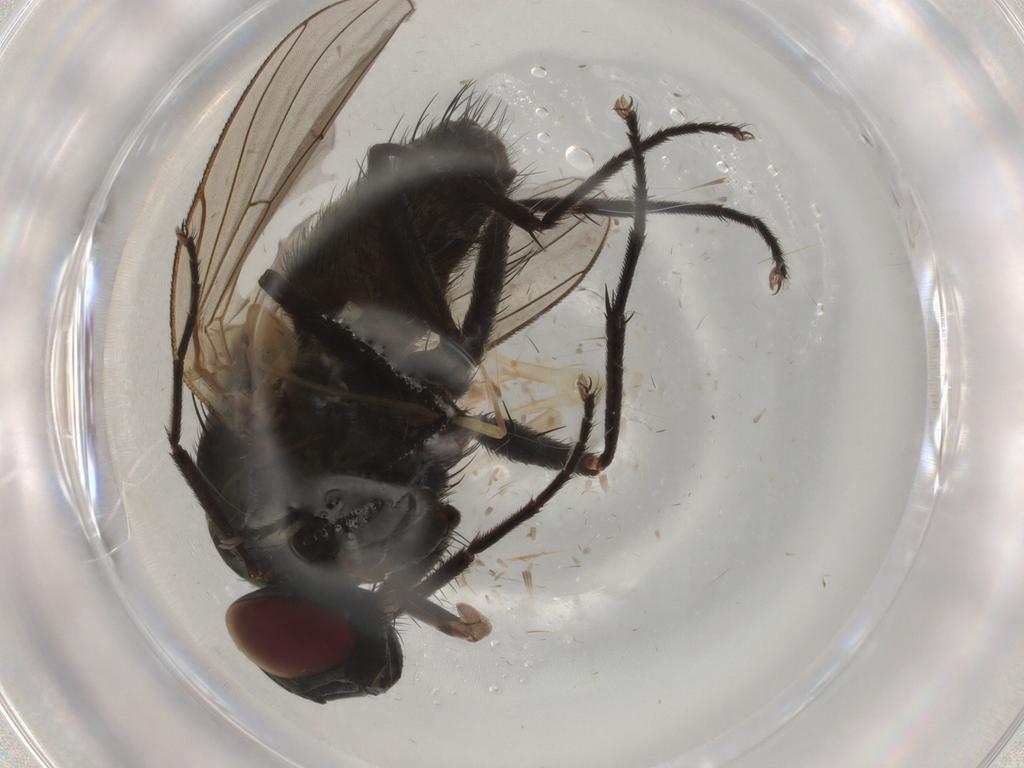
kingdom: Animalia
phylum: Arthropoda
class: Insecta
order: Diptera
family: Muscidae
